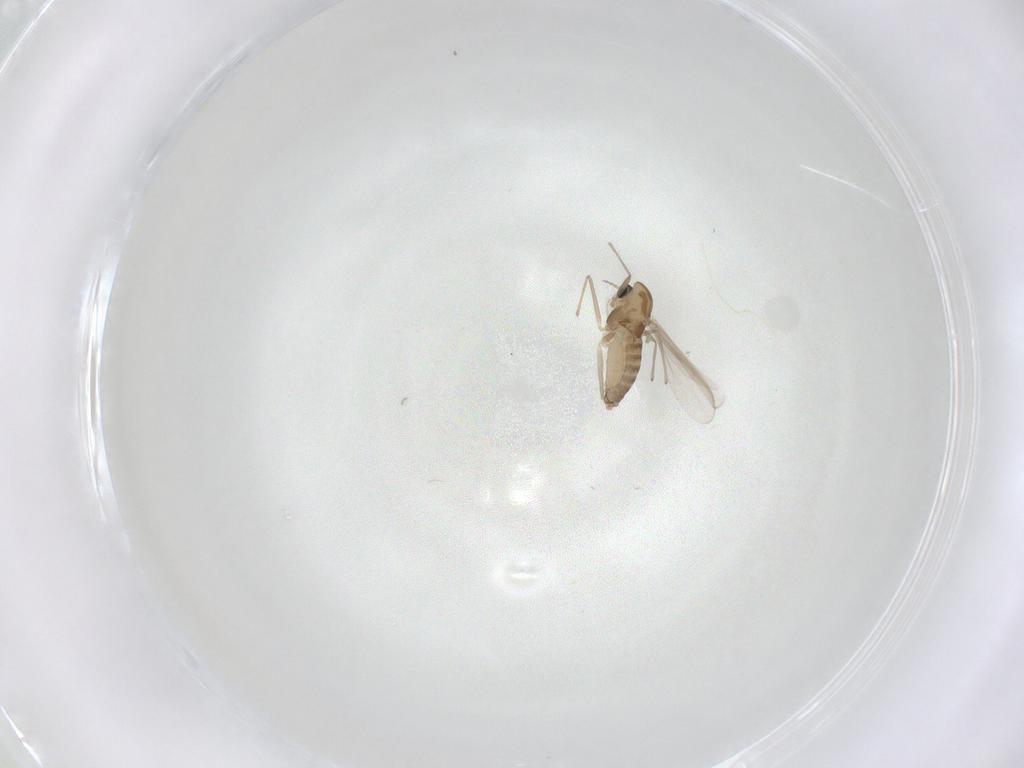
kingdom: Animalia
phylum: Arthropoda
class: Insecta
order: Diptera
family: Chironomidae
